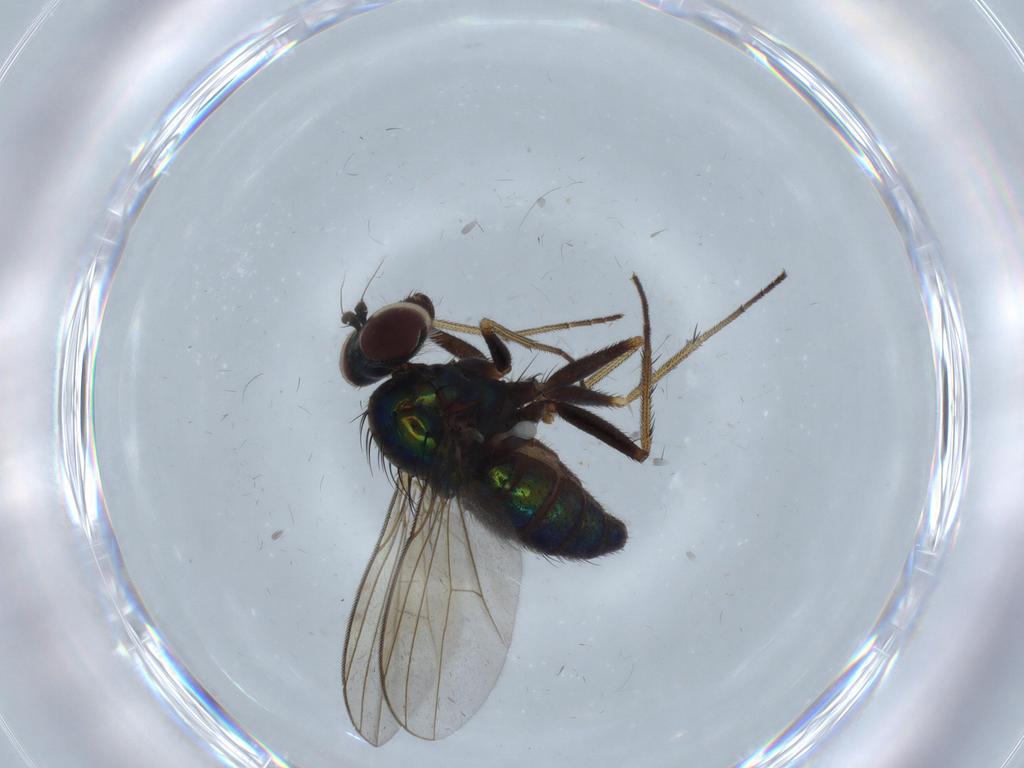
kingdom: Animalia
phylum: Arthropoda
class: Insecta
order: Diptera
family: Dolichopodidae
